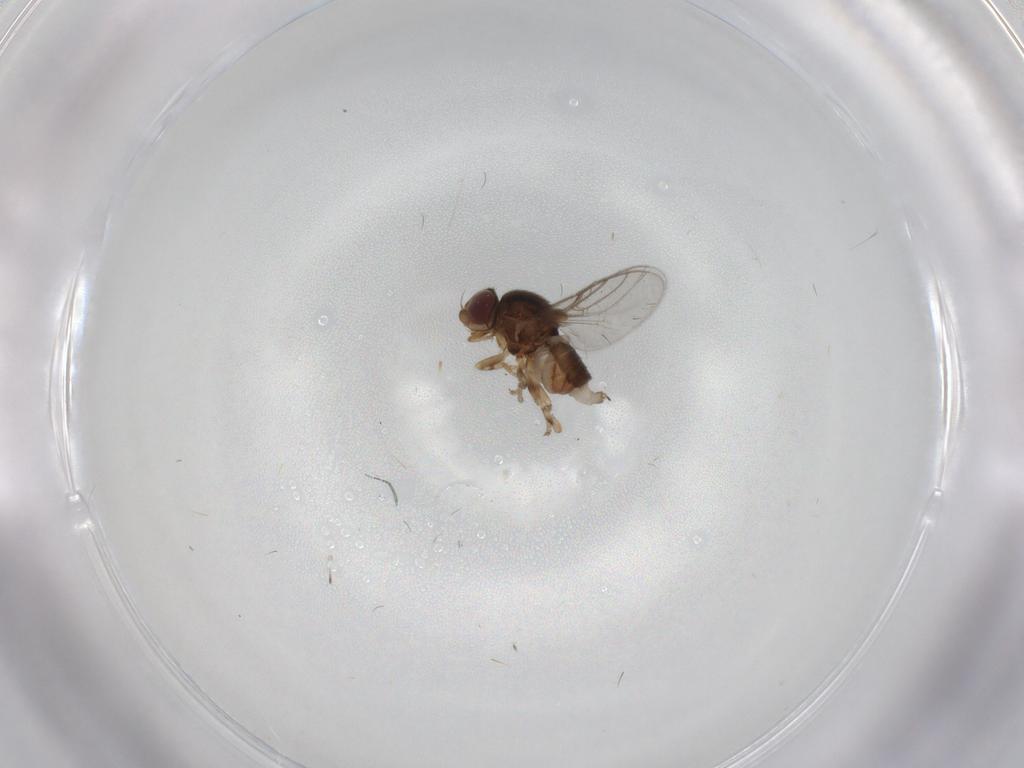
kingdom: Animalia
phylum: Arthropoda
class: Insecta
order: Diptera
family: Chloropidae
